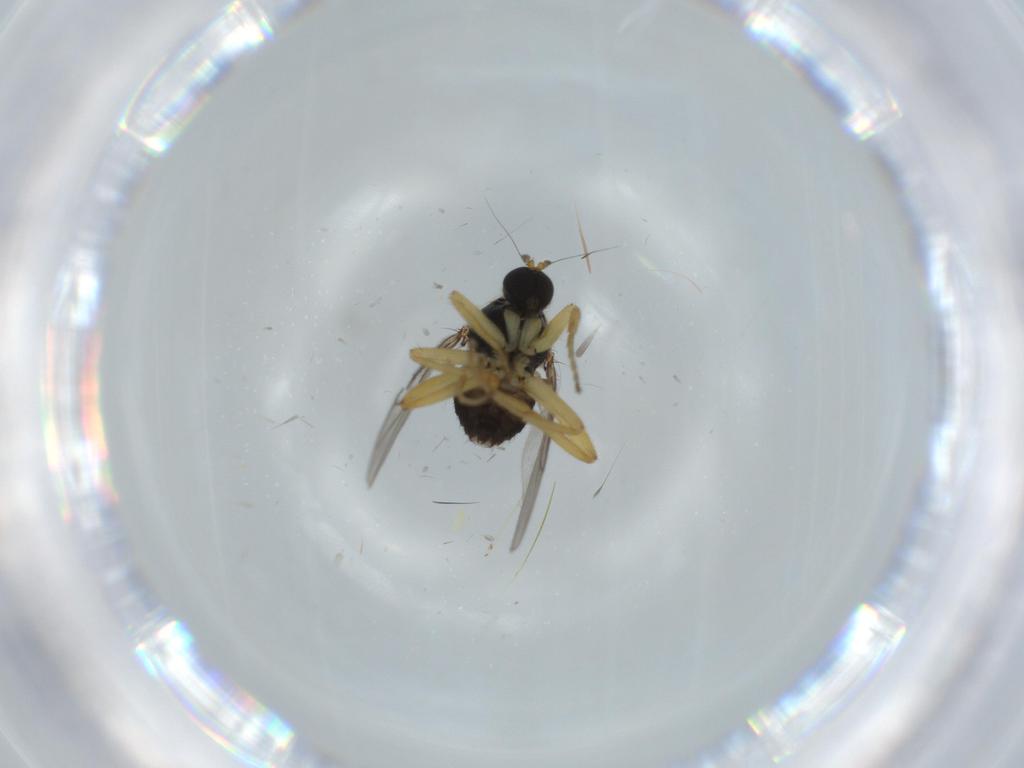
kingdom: Animalia
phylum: Arthropoda
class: Insecta
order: Diptera
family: Hybotidae
